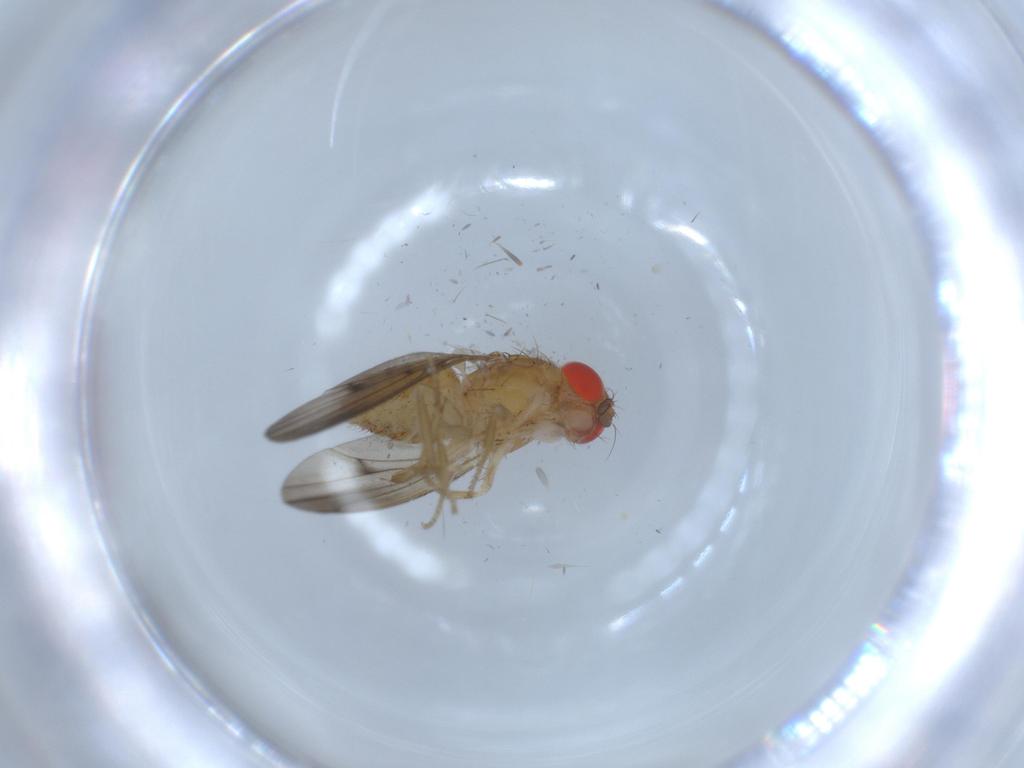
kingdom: Animalia
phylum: Arthropoda
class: Insecta
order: Diptera
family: Drosophilidae
